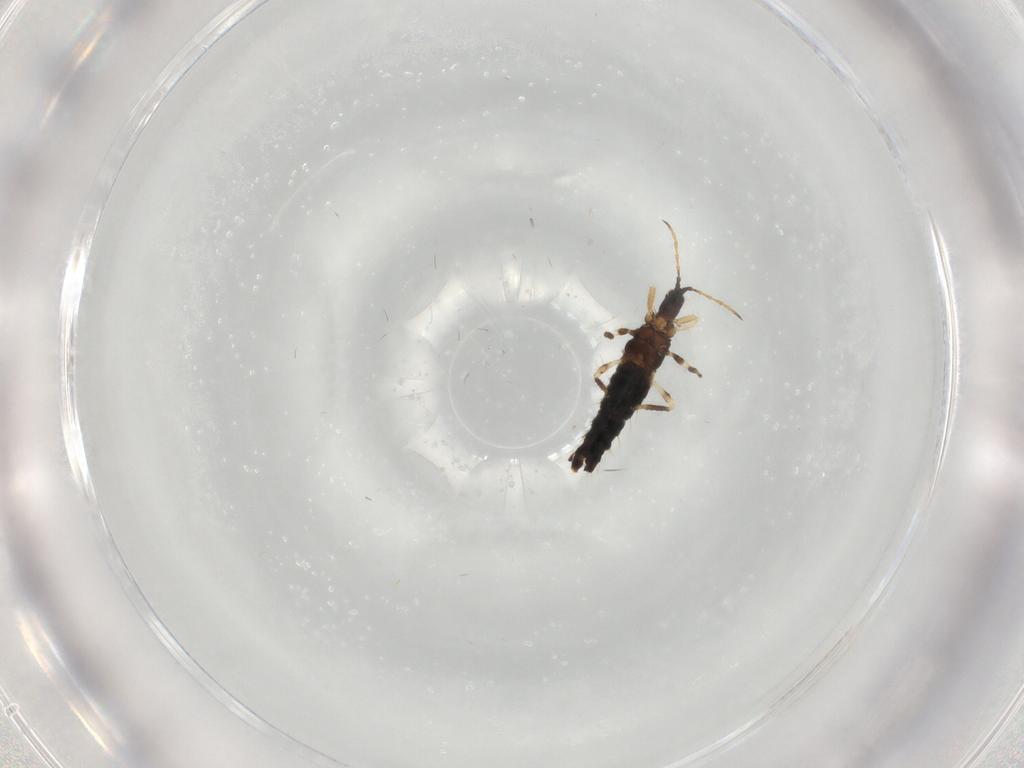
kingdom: Animalia
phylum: Arthropoda
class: Insecta
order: Thysanoptera
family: Phlaeothripidae
